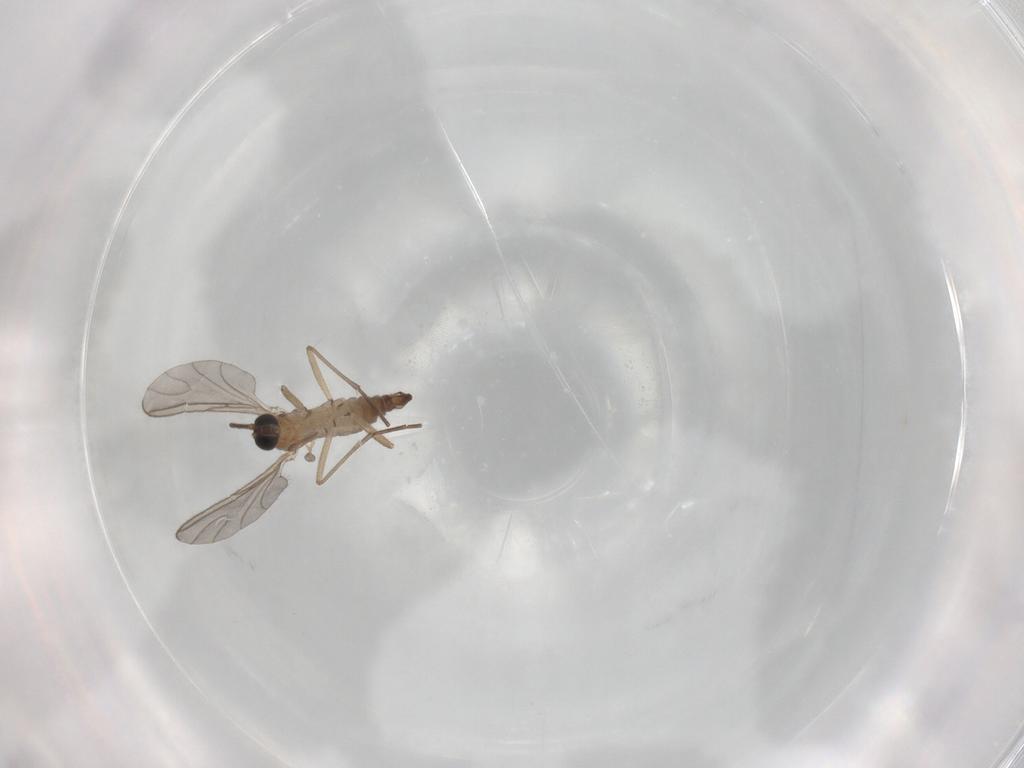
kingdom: Animalia
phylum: Arthropoda
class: Insecta
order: Diptera
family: Sciaridae
